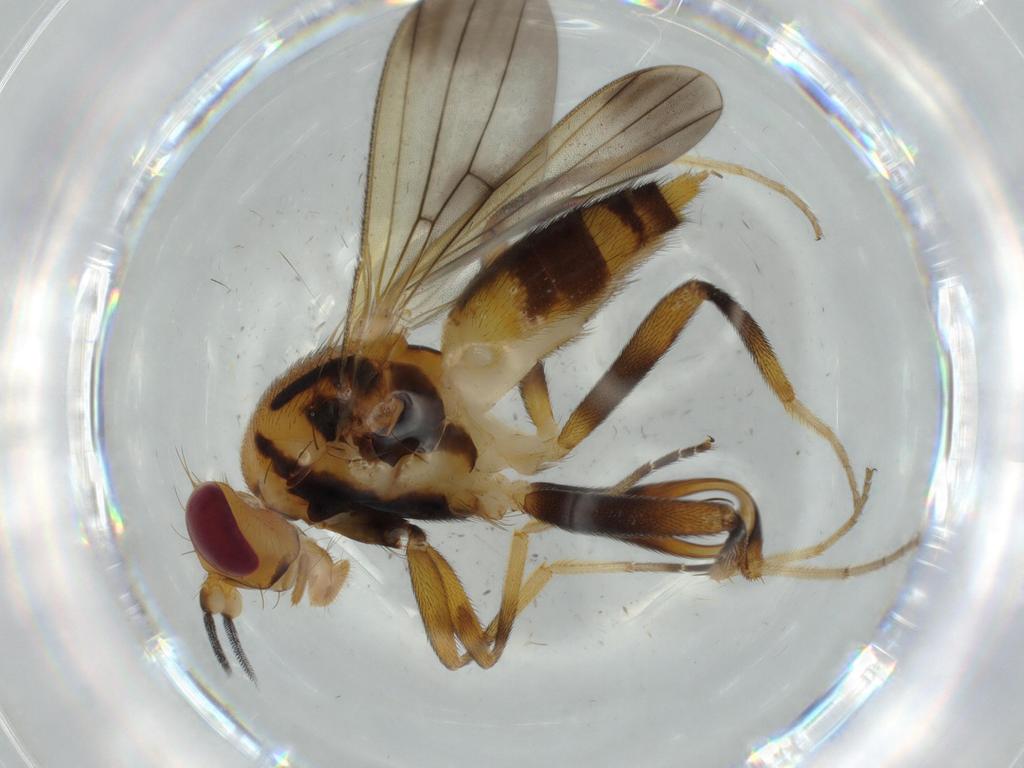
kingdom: Animalia
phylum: Arthropoda
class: Insecta
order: Diptera
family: Clusiidae
